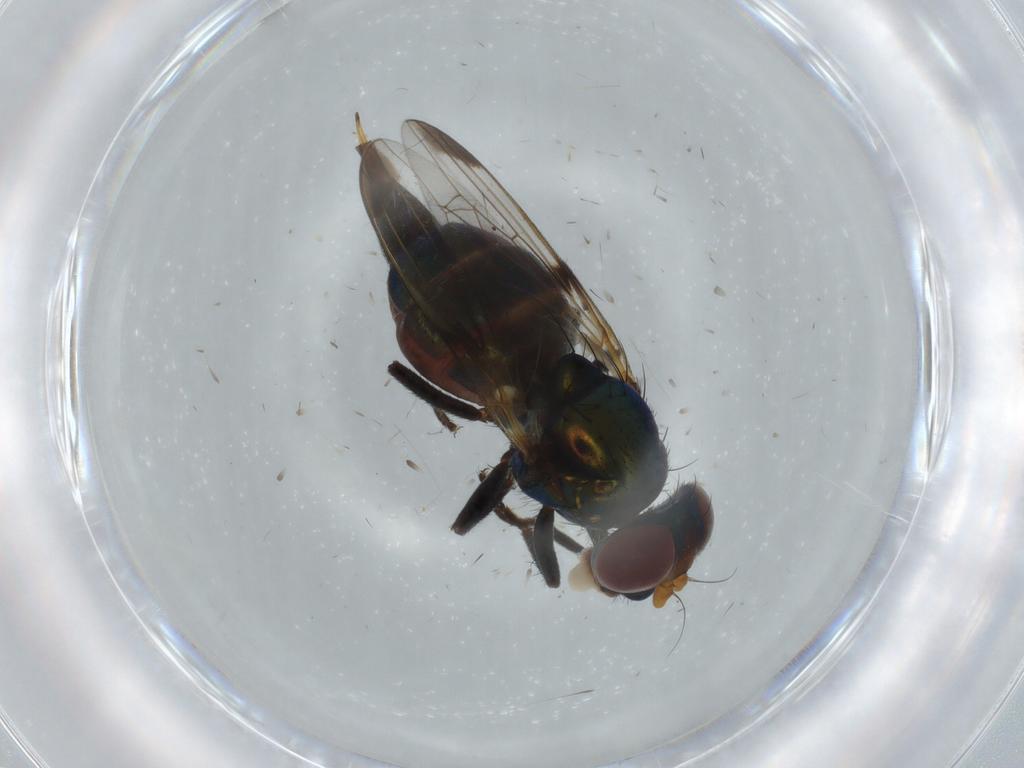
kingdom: Animalia
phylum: Arthropoda
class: Insecta
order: Diptera
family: Ulidiidae
